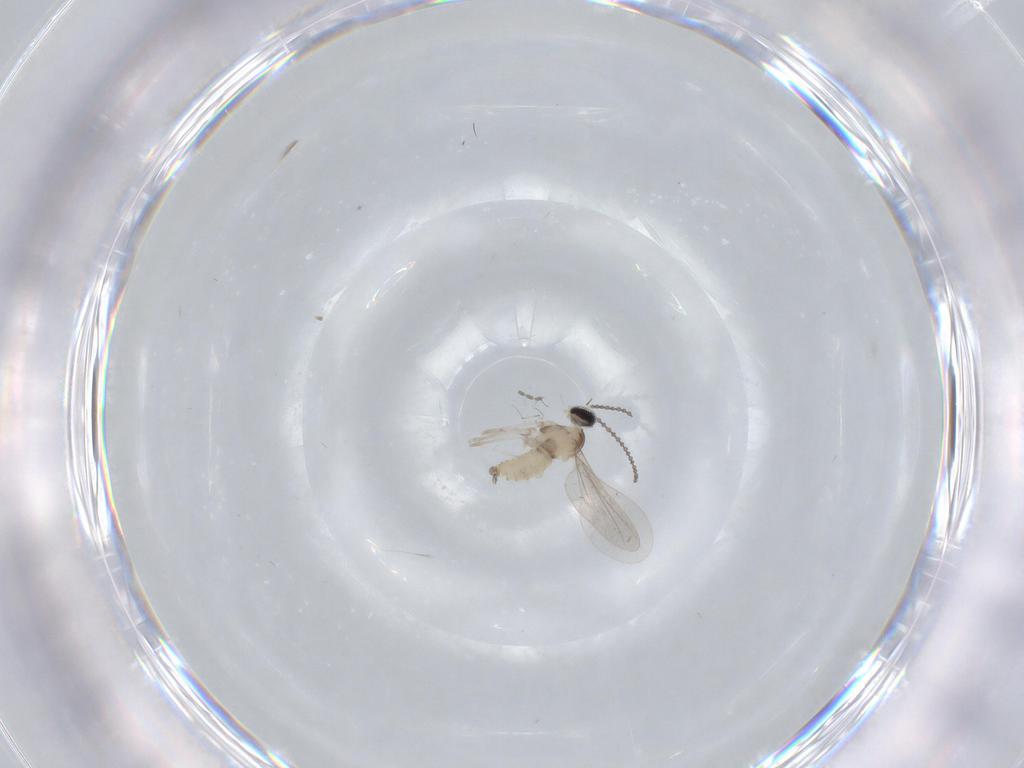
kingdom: Animalia
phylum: Arthropoda
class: Insecta
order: Diptera
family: Cecidomyiidae
